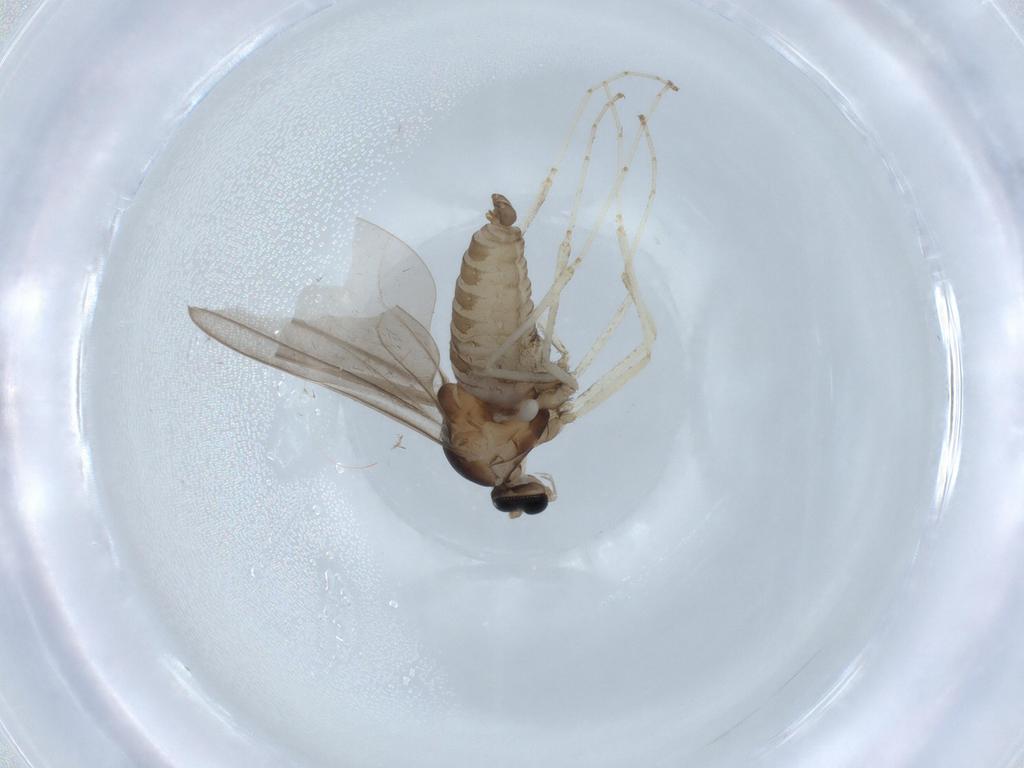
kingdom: Animalia
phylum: Arthropoda
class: Insecta
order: Diptera
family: Cecidomyiidae
